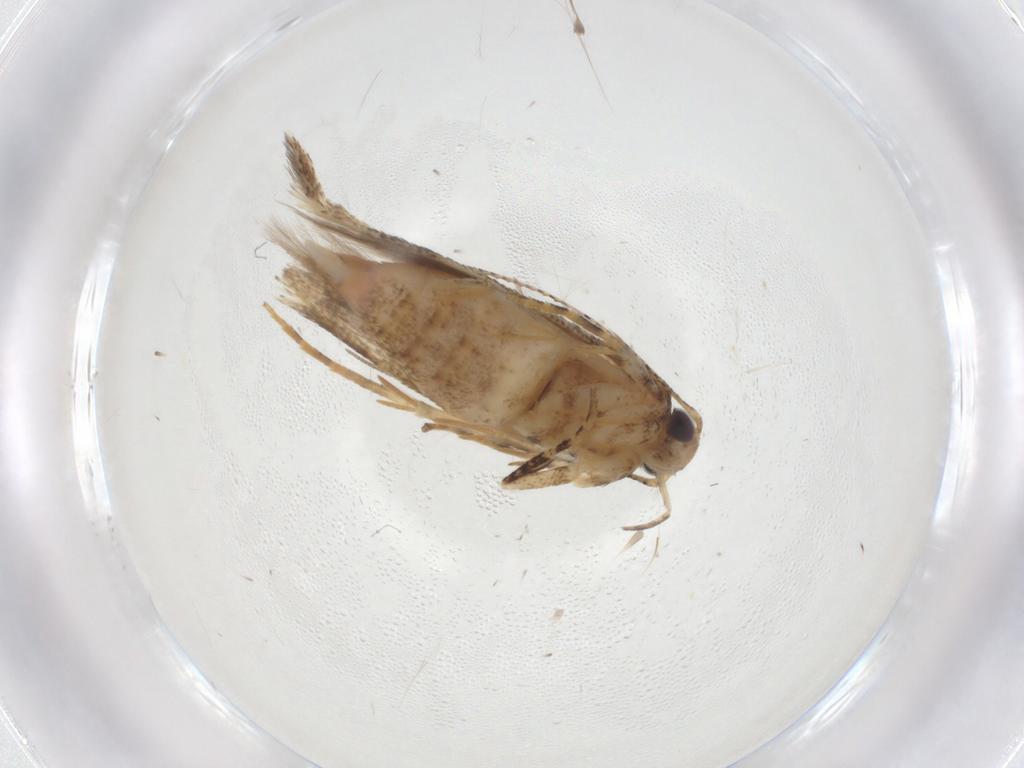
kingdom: Animalia
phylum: Arthropoda
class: Insecta
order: Lepidoptera
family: Gelechiidae
